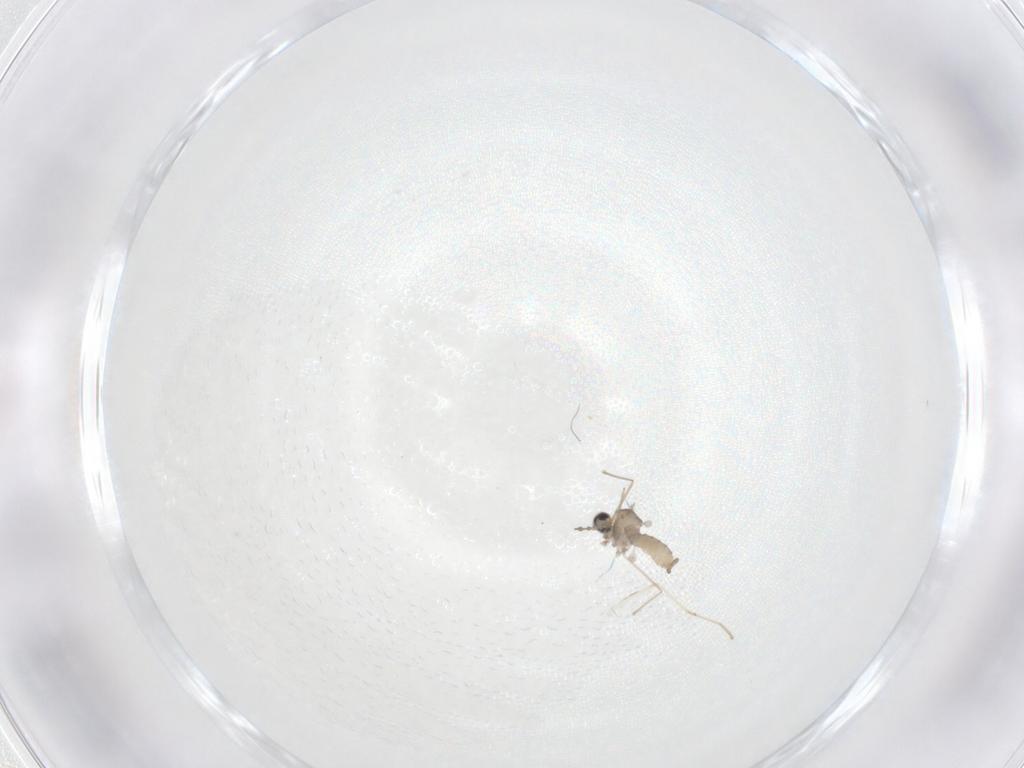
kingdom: Animalia
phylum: Arthropoda
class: Insecta
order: Diptera
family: Cecidomyiidae
